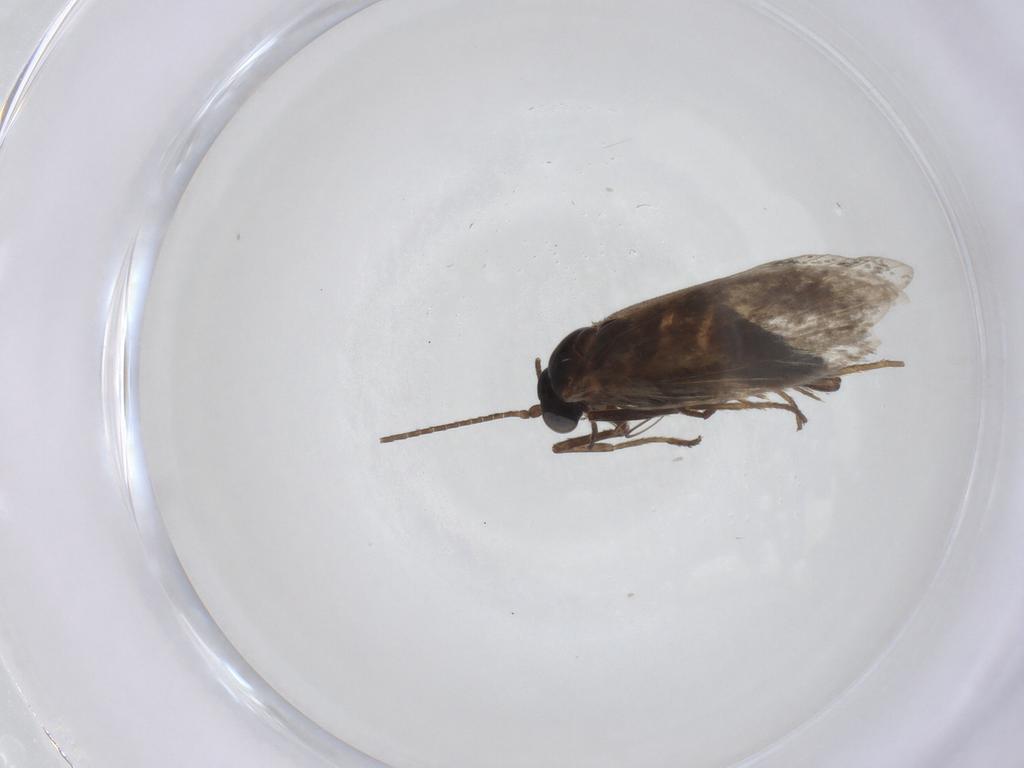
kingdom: Animalia
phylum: Arthropoda
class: Insecta
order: Lepidoptera
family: Adelidae
